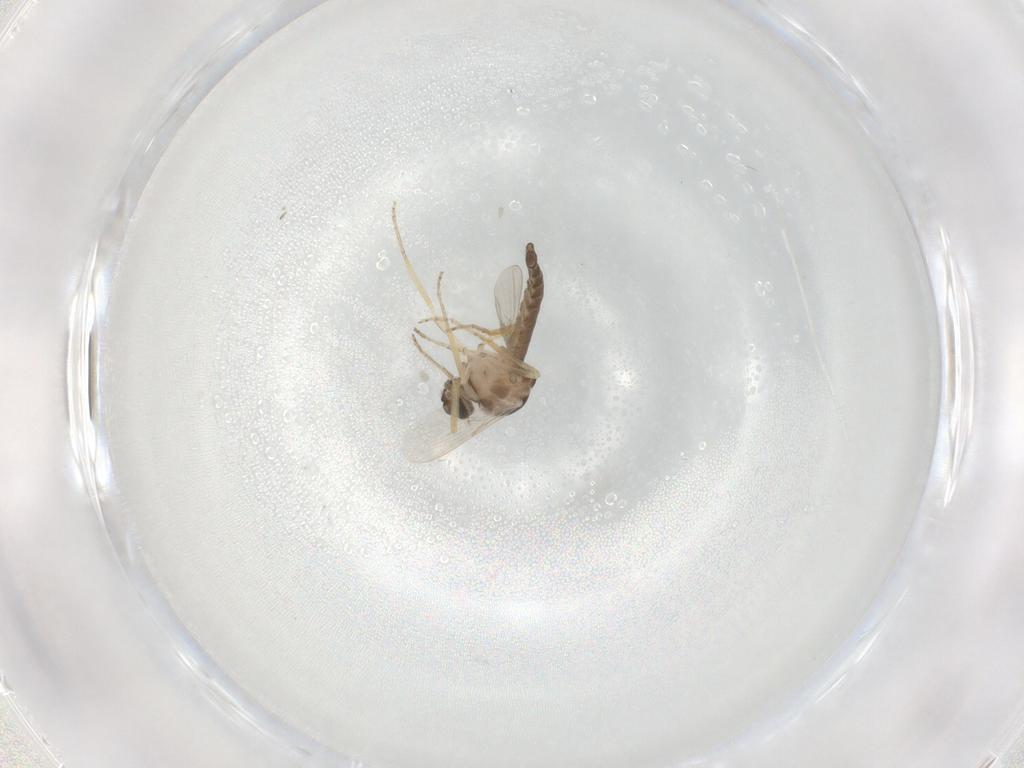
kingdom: Animalia
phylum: Arthropoda
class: Insecta
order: Diptera
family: Ceratopogonidae
